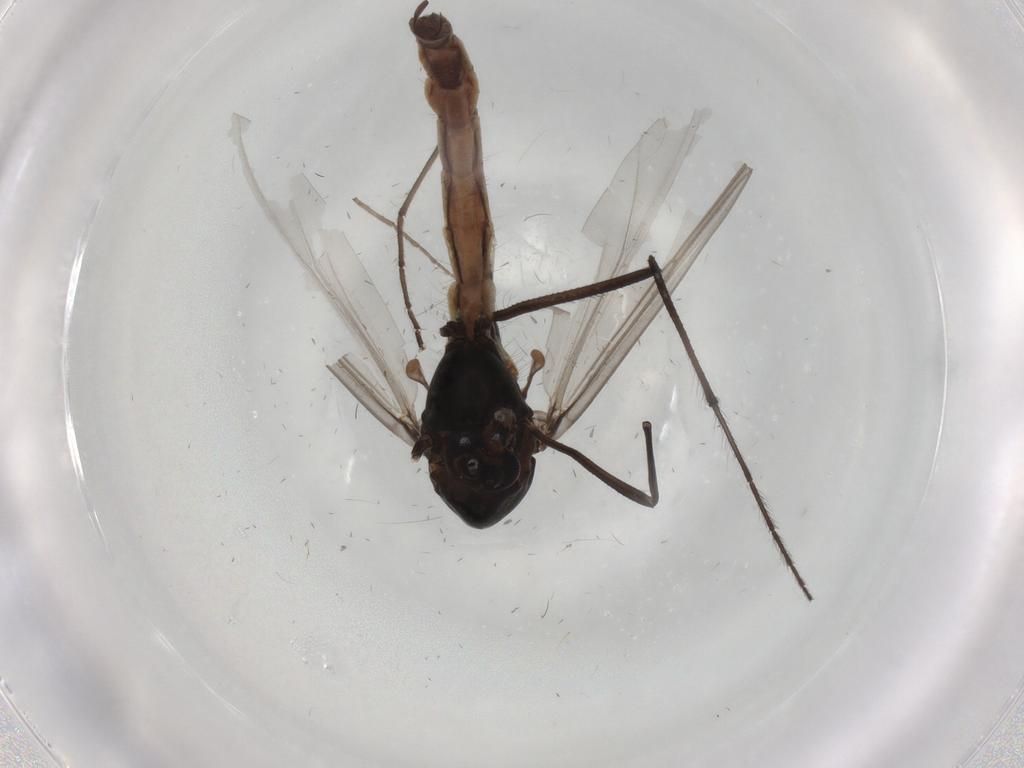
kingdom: Animalia
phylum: Arthropoda
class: Insecta
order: Diptera
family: Chironomidae
